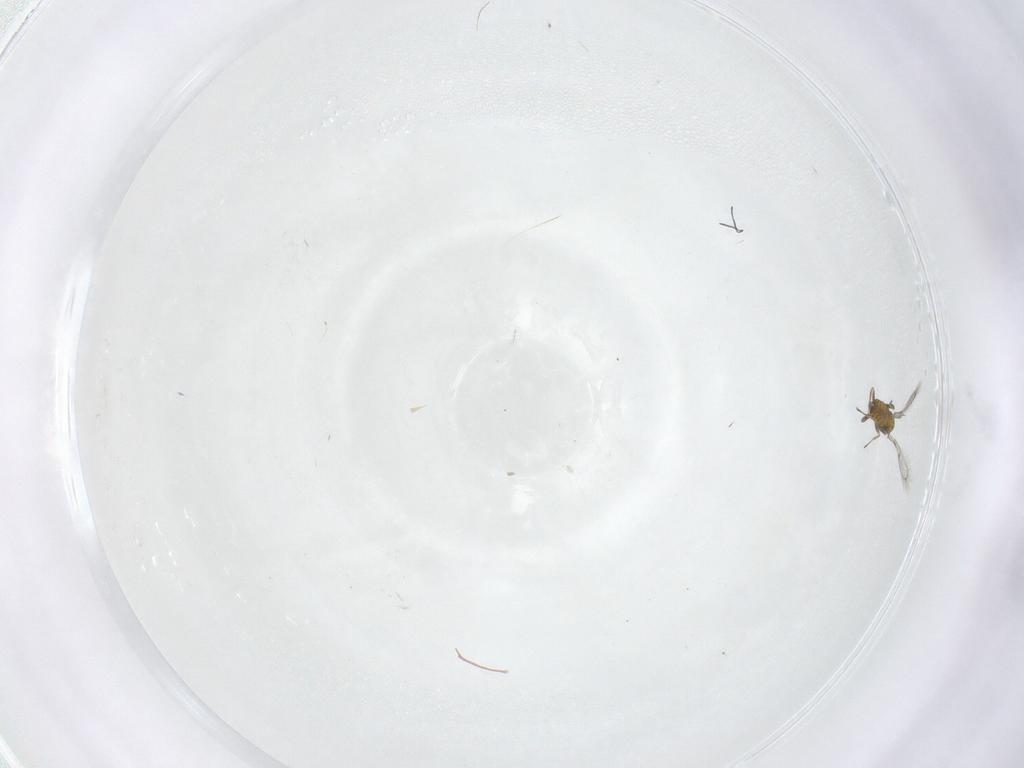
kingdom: Animalia
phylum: Arthropoda
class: Insecta
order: Hymenoptera
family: Trichogrammatidae
